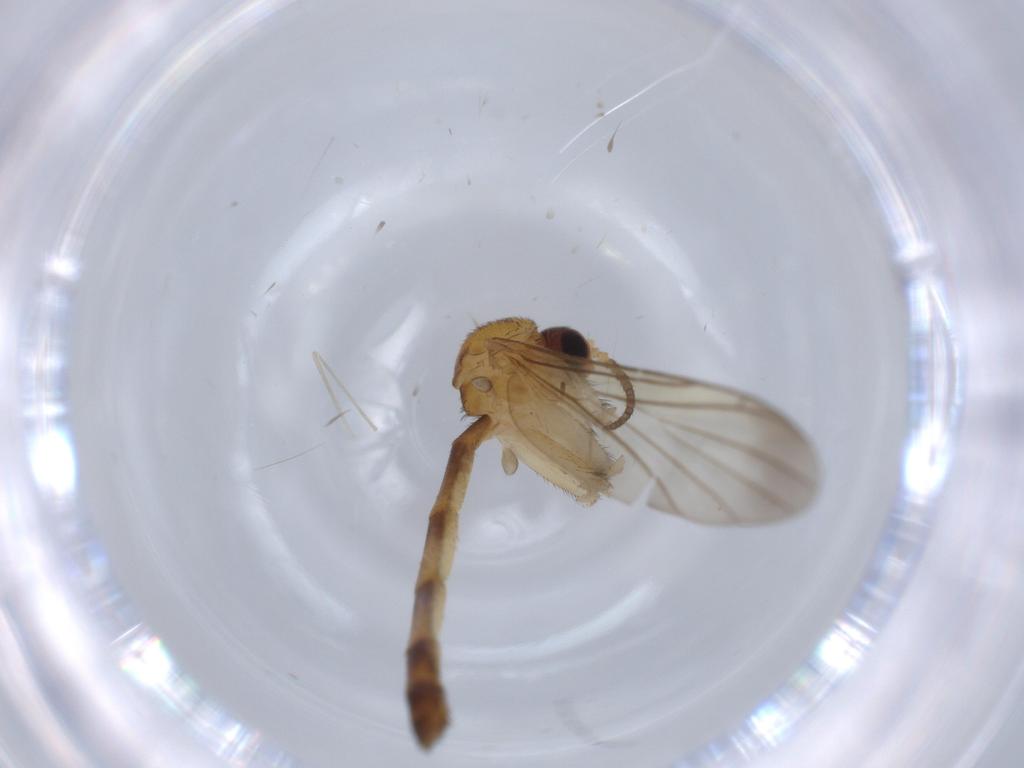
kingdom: Animalia
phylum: Arthropoda
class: Insecta
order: Diptera
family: Keroplatidae
